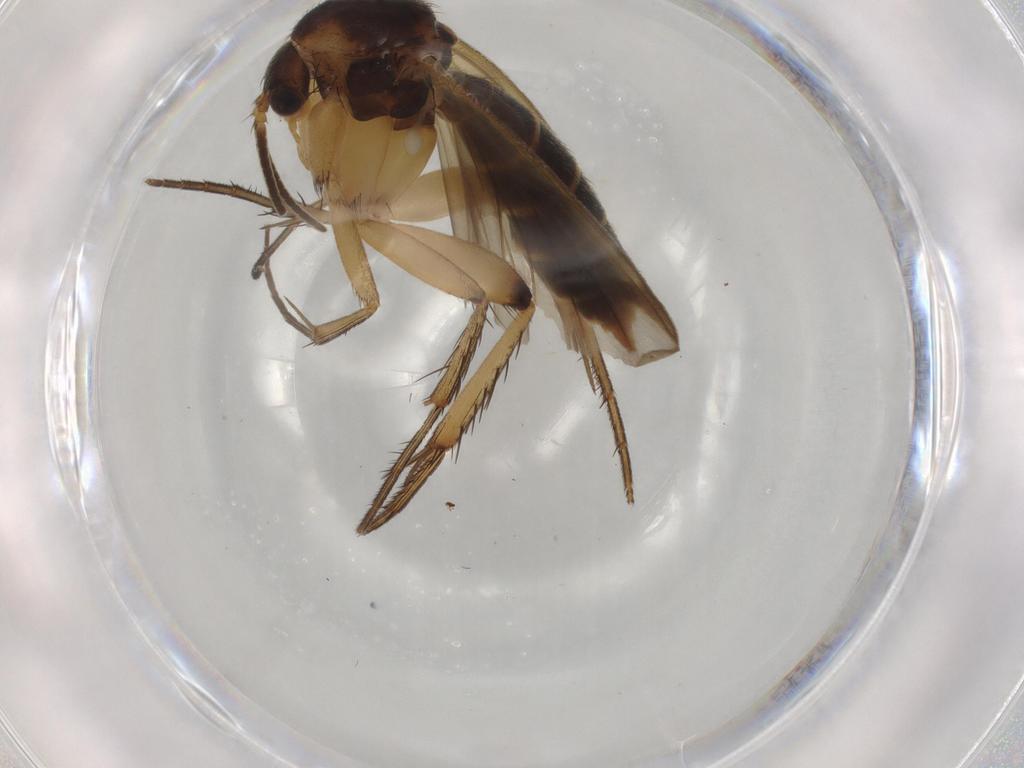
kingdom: Animalia
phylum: Arthropoda
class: Insecta
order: Diptera
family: Mycetophilidae
